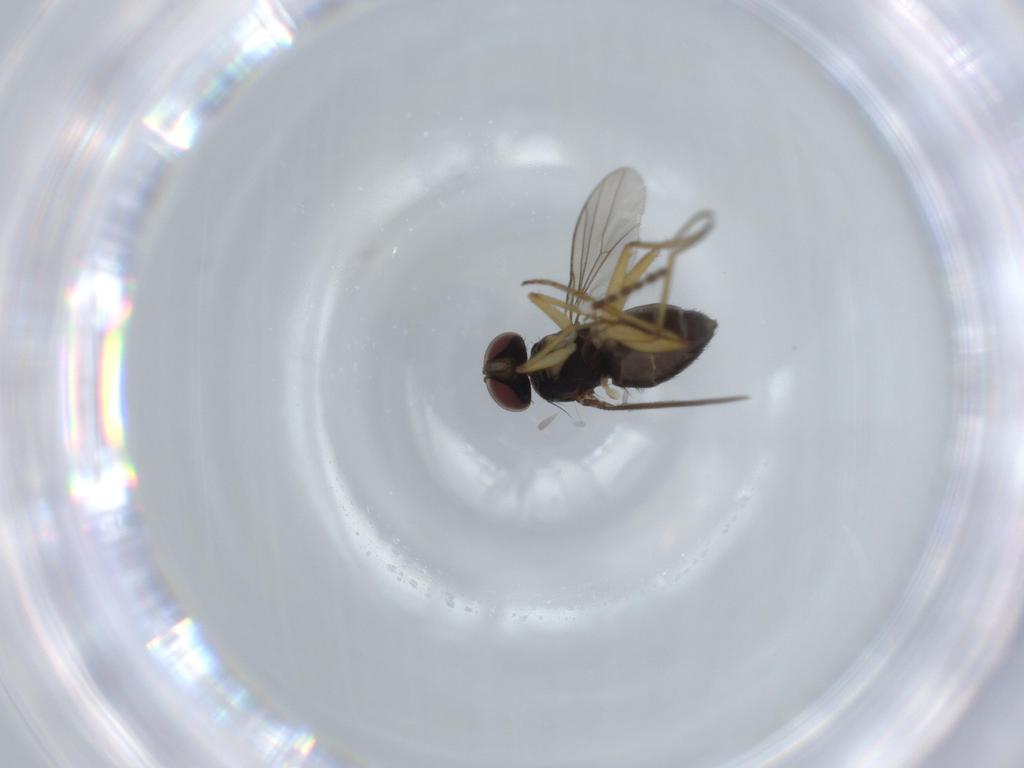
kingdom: Animalia
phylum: Arthropoda
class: Insecta
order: Diptera
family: Dolichopodidae
